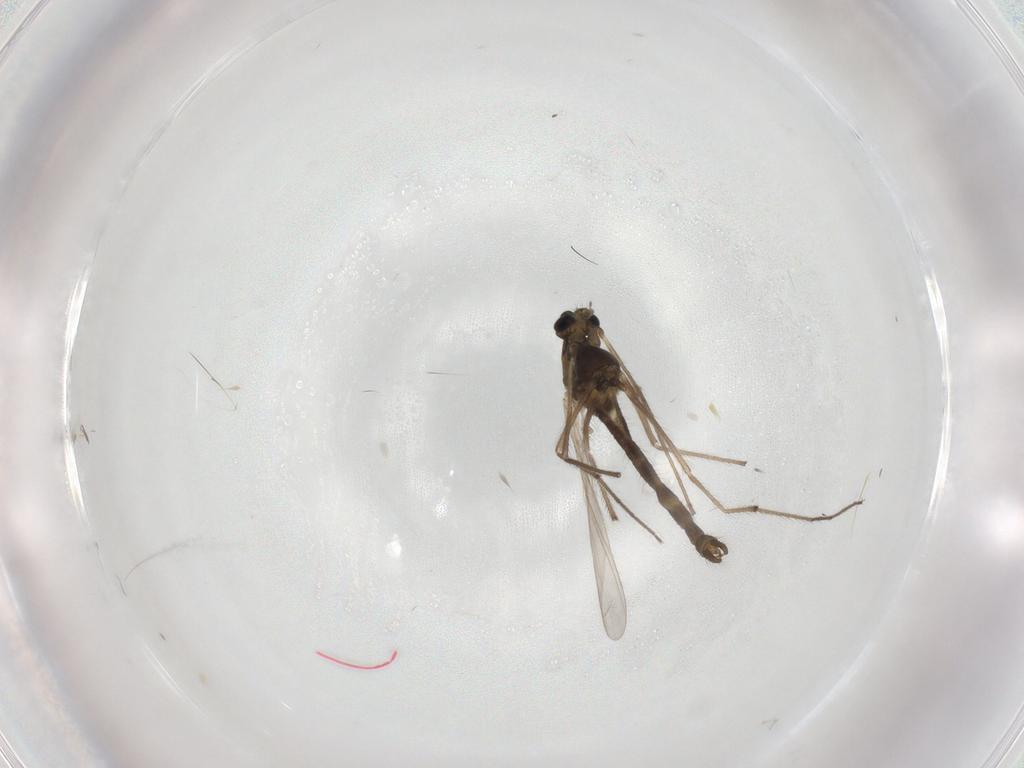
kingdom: Animalia
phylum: Arthropoda
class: Insecta
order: Diptera
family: Chironomidae
